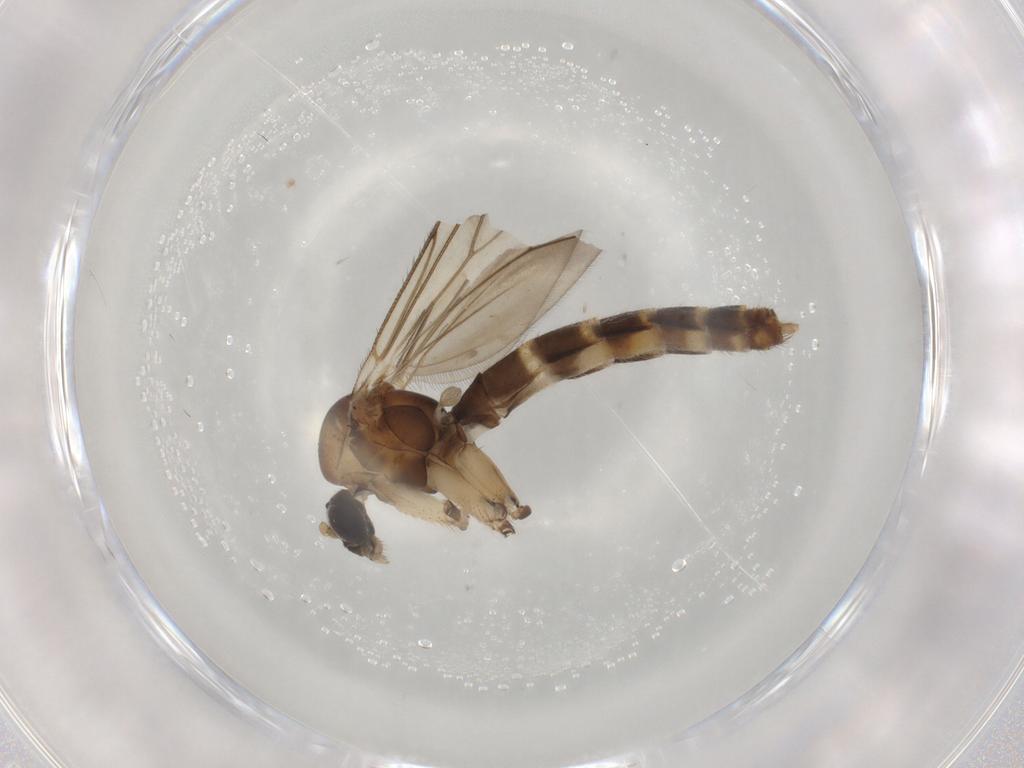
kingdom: Animalia
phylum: Arthropoda
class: Insecta
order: Diptera
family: Mycetophilidae
